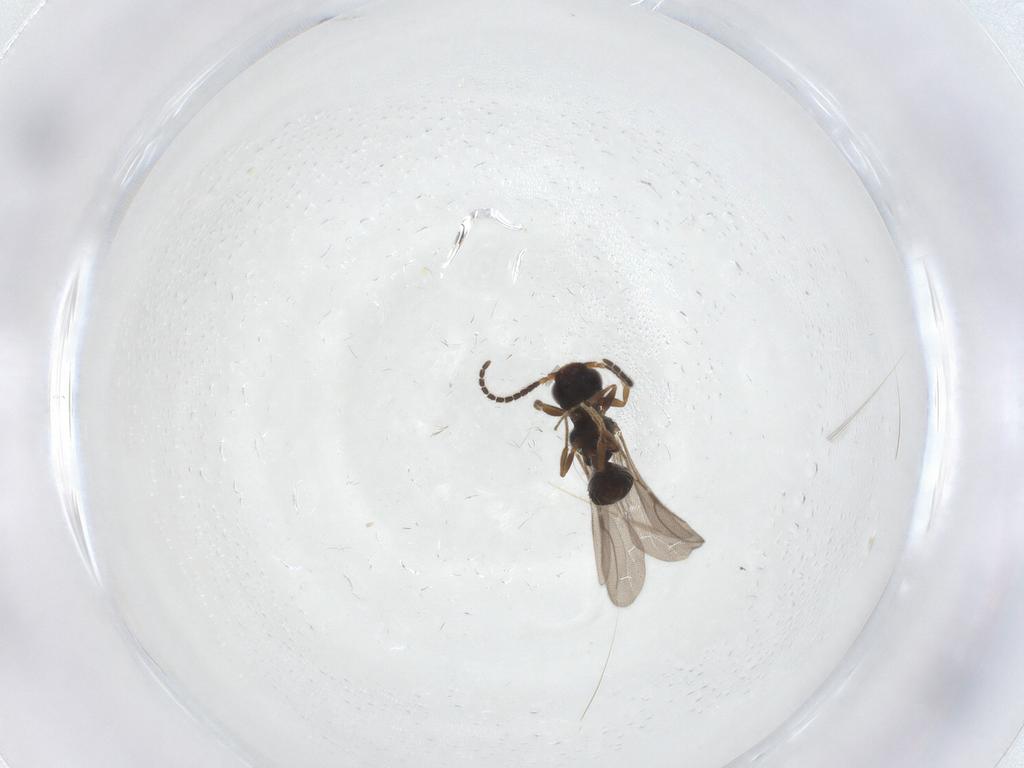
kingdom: Animalia
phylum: Arthropoda
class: Insecta
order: Hymenoptera
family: Bethylidae
